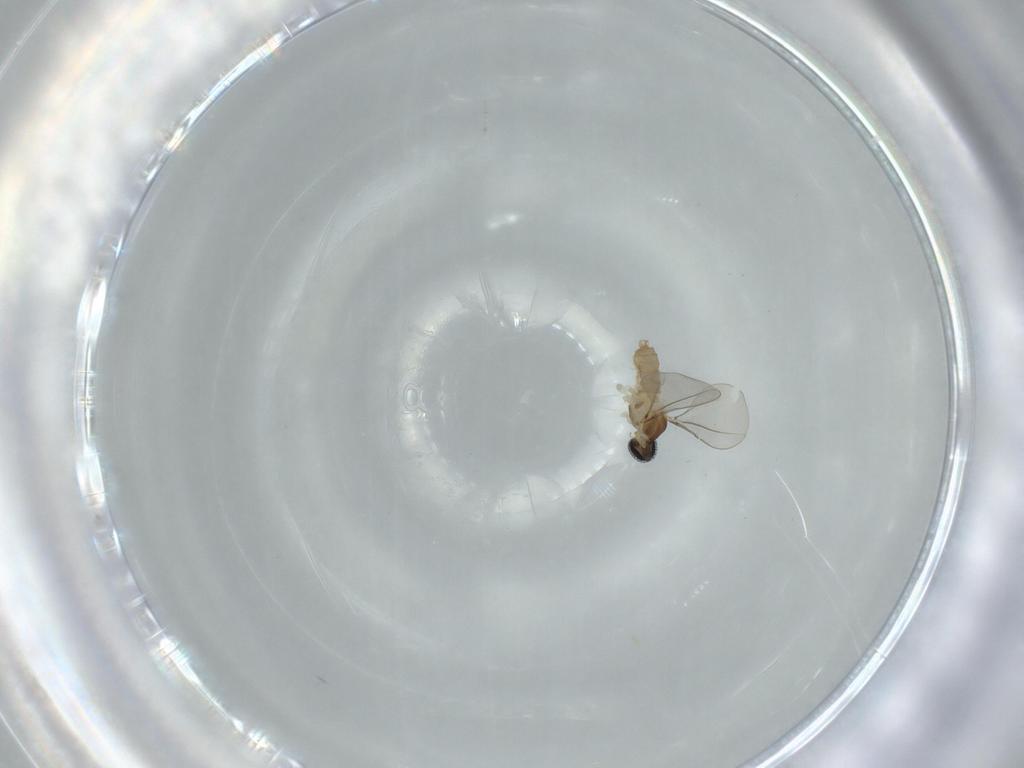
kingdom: Animalia
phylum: Arthropoda
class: Insecta
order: Diptera
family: Cecidomyiidae
